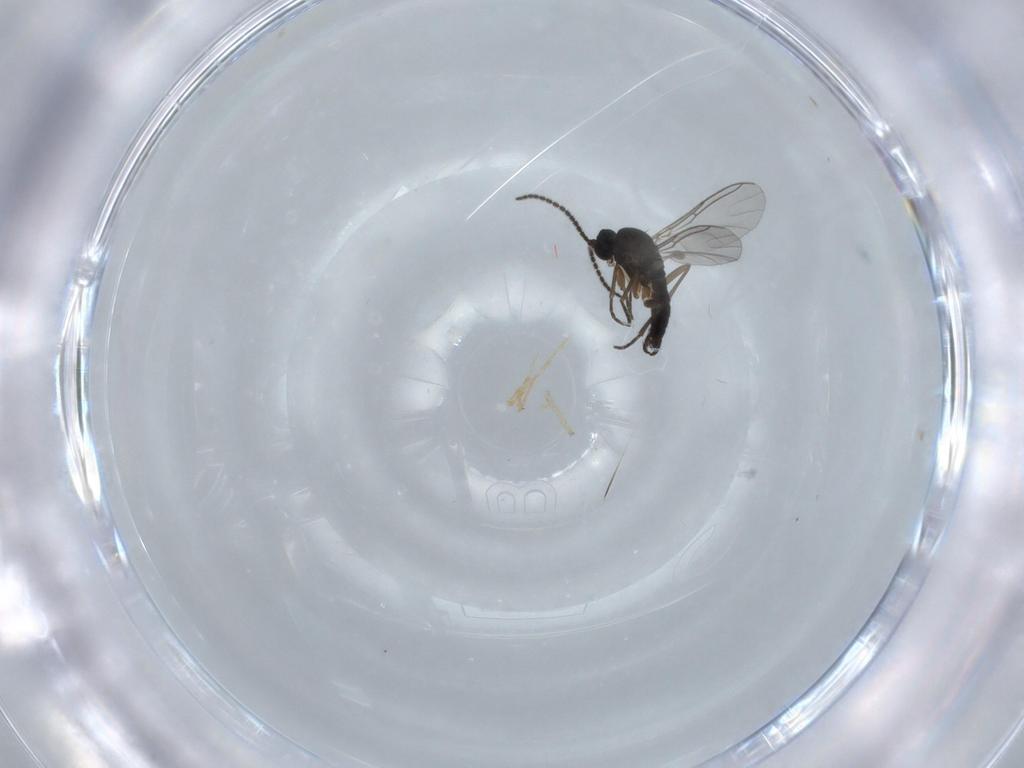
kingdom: Animalia
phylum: Arthropoda
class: Insecta
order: Diptera
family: Sciaridae
